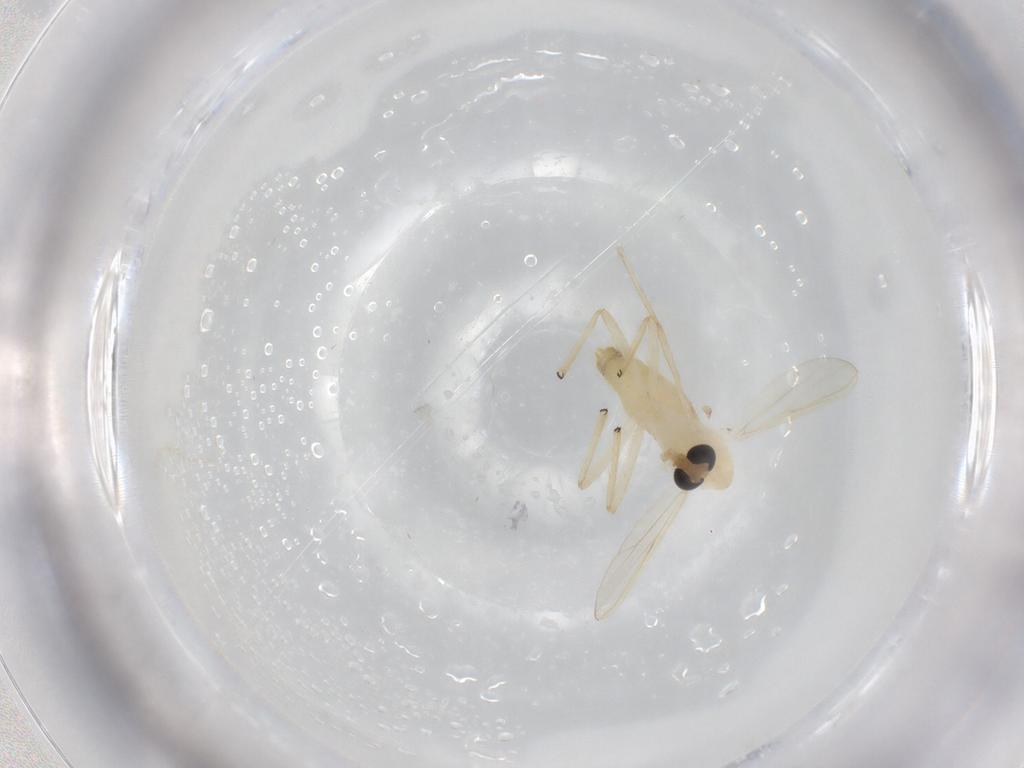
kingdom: Animalia
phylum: Arthropoda
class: Insecta
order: Diptera
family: Chironomidae
